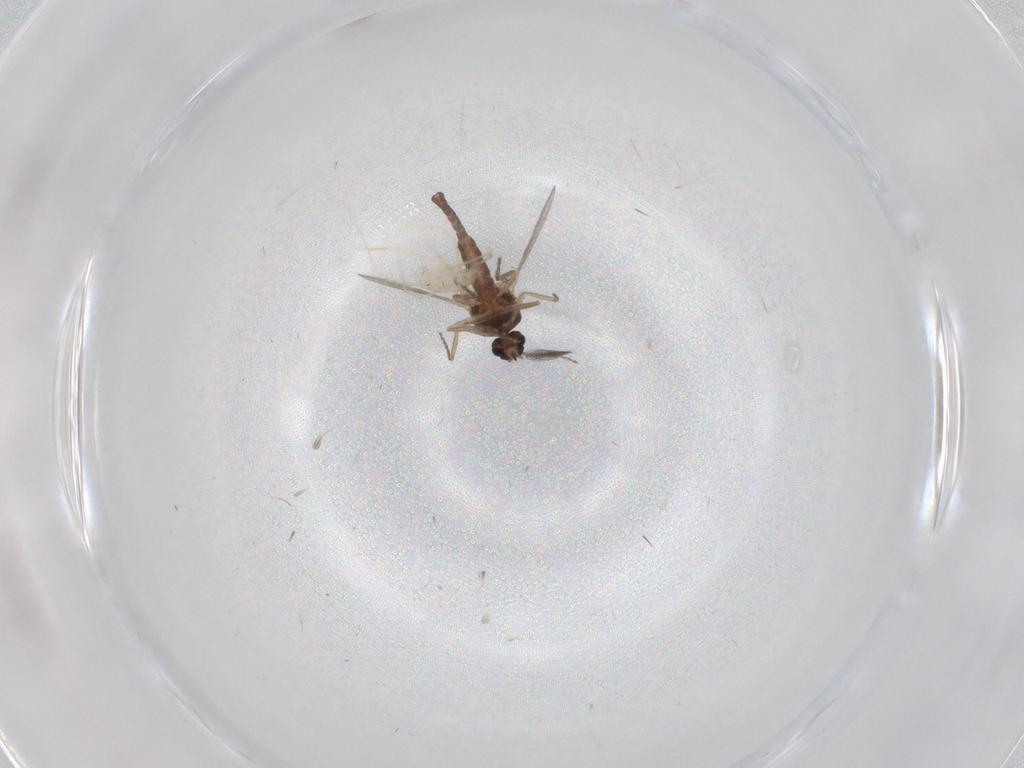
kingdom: Animalia
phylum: Arthropoda
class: Insecta
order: Diptera
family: Ceratopogonidae
